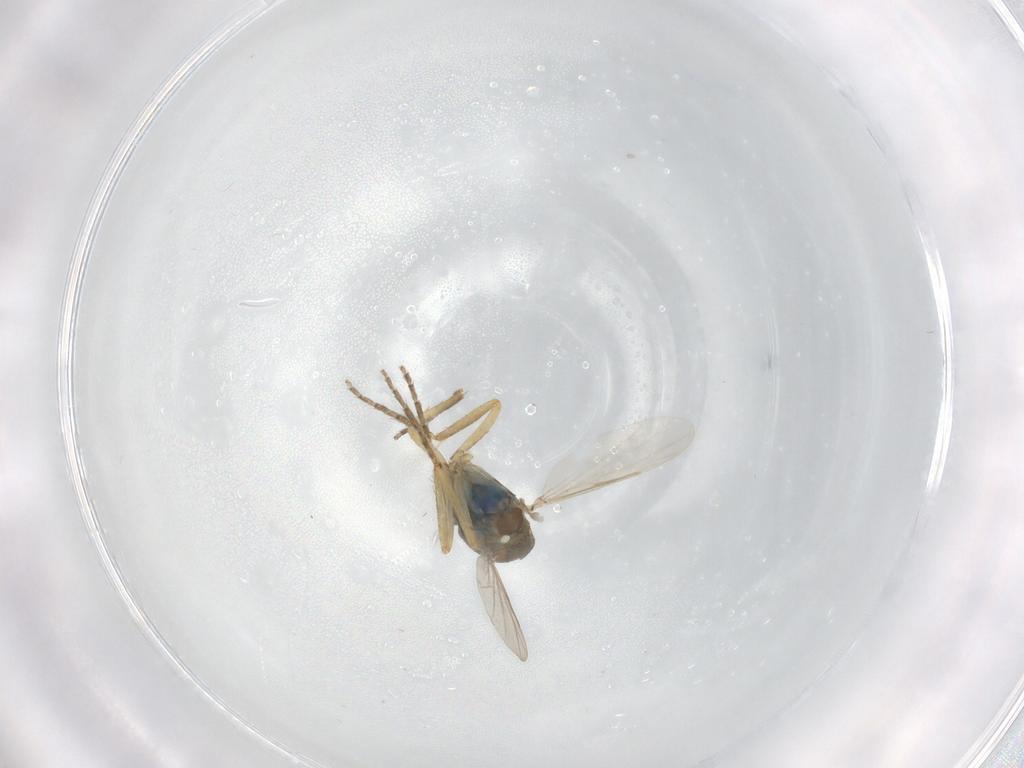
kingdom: Animalia
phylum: Arthropoda
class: Insecta
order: Diptera
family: Ceratopogonidae
